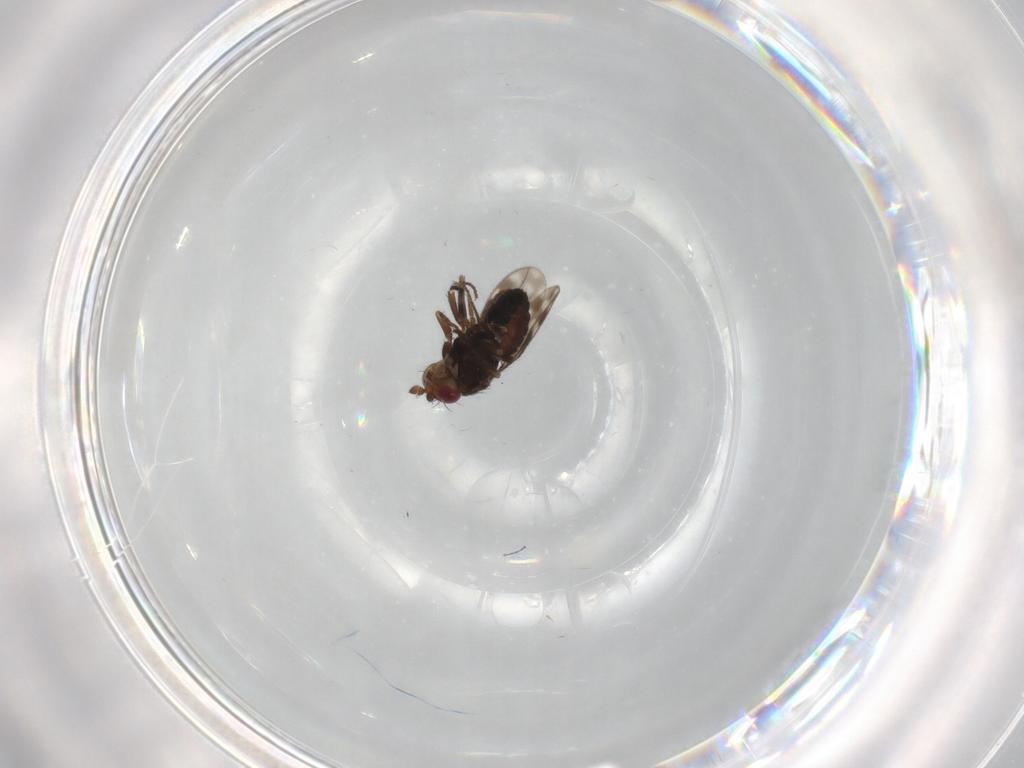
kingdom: Animalia
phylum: Arthropoda
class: Insecta
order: Diptera
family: Sphaeroceridae
